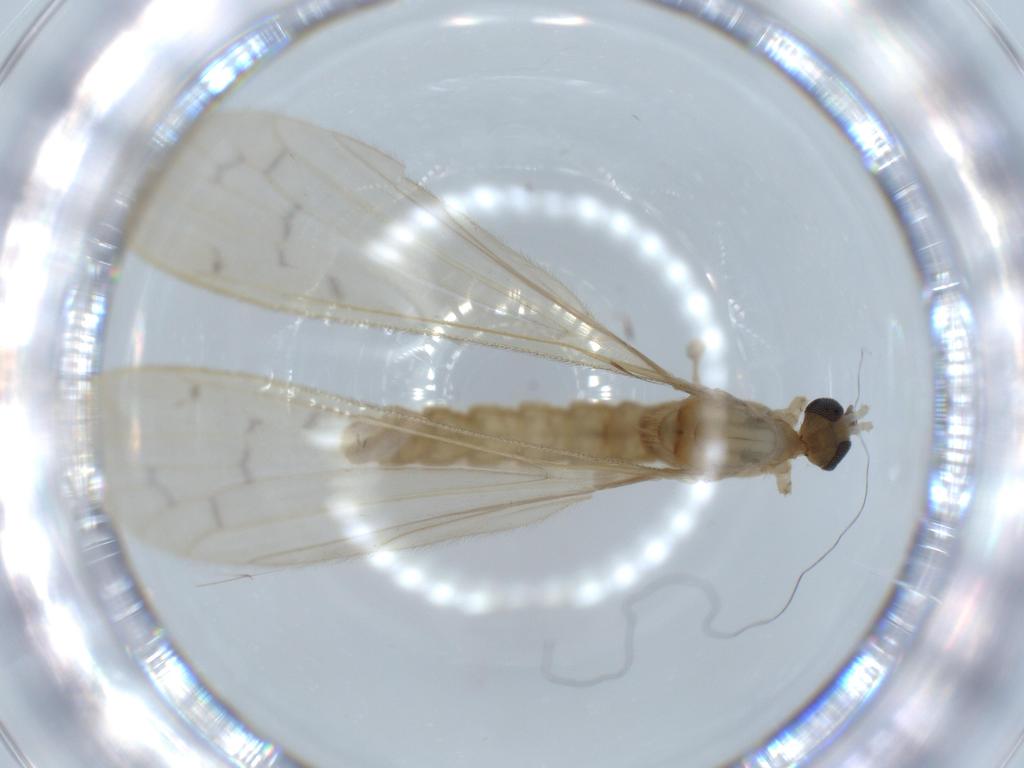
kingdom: Animalia
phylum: Arthropoda
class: Insecta
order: Diptera
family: Limoniidae
